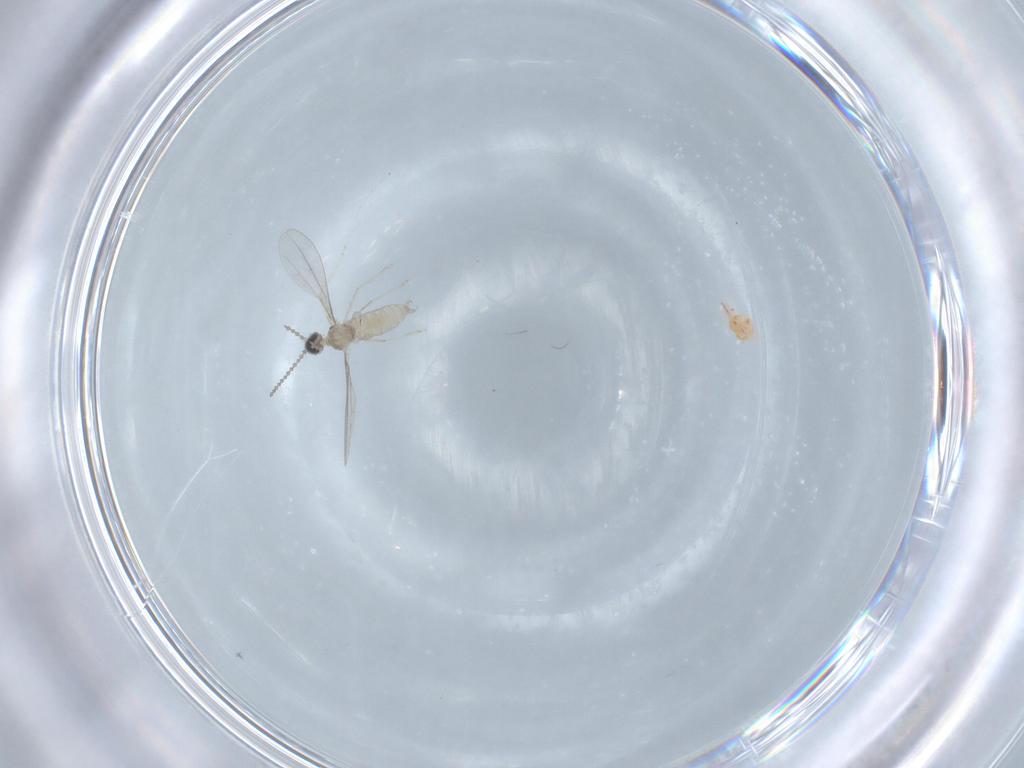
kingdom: Animalia
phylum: Arthropoda
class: Insecta
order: Diptera
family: Cecidomyiidae
